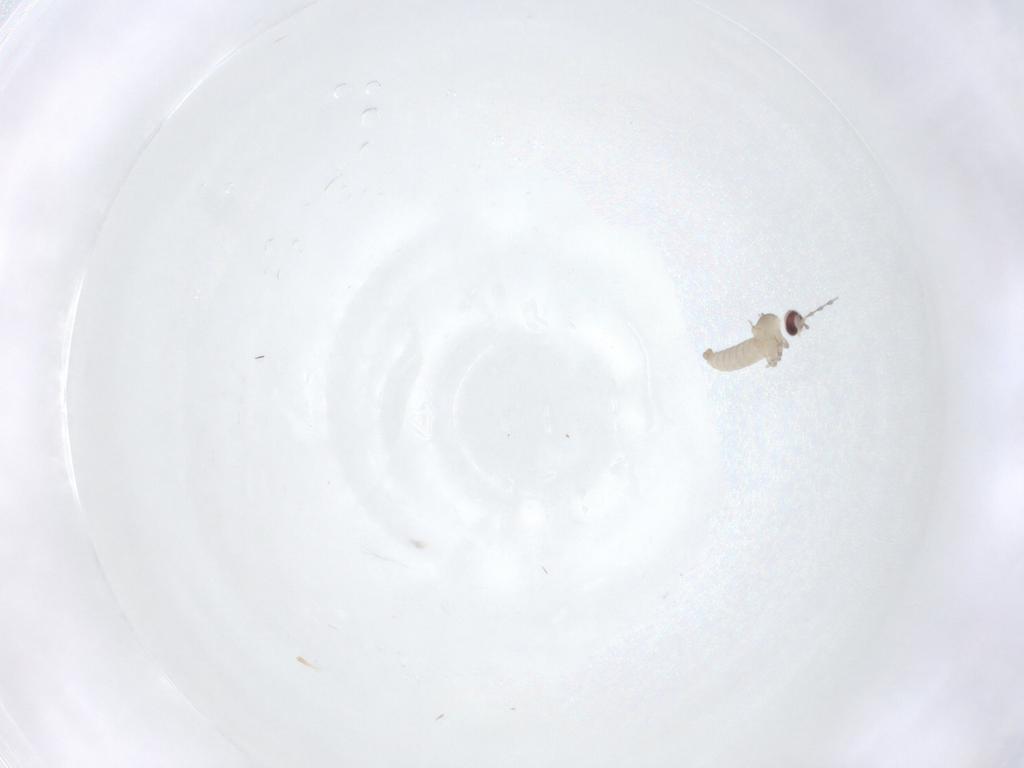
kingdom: Animalia
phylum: Arthropoda
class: Insecta
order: Diptera
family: Cecidomyiidae
